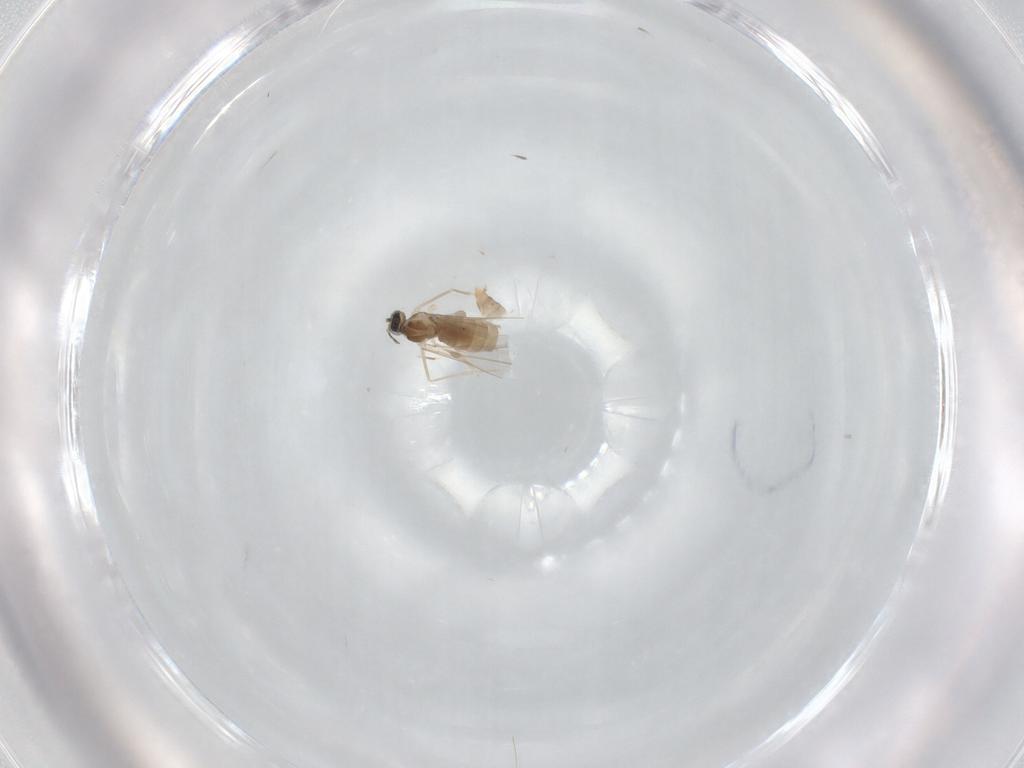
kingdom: Animalia
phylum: Arthropoda
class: Insecta
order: Diptera
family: Cecidomyiidae
